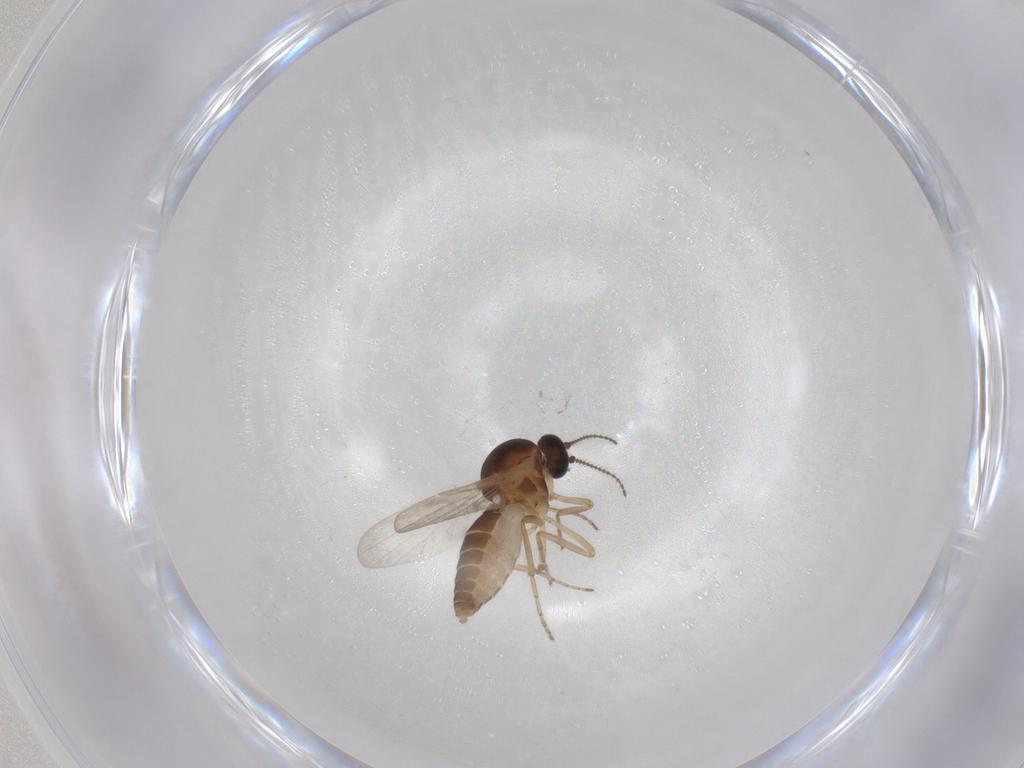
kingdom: Animalia
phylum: Arthropoda
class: Insecta
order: Diptera
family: Ceratopogonidae
